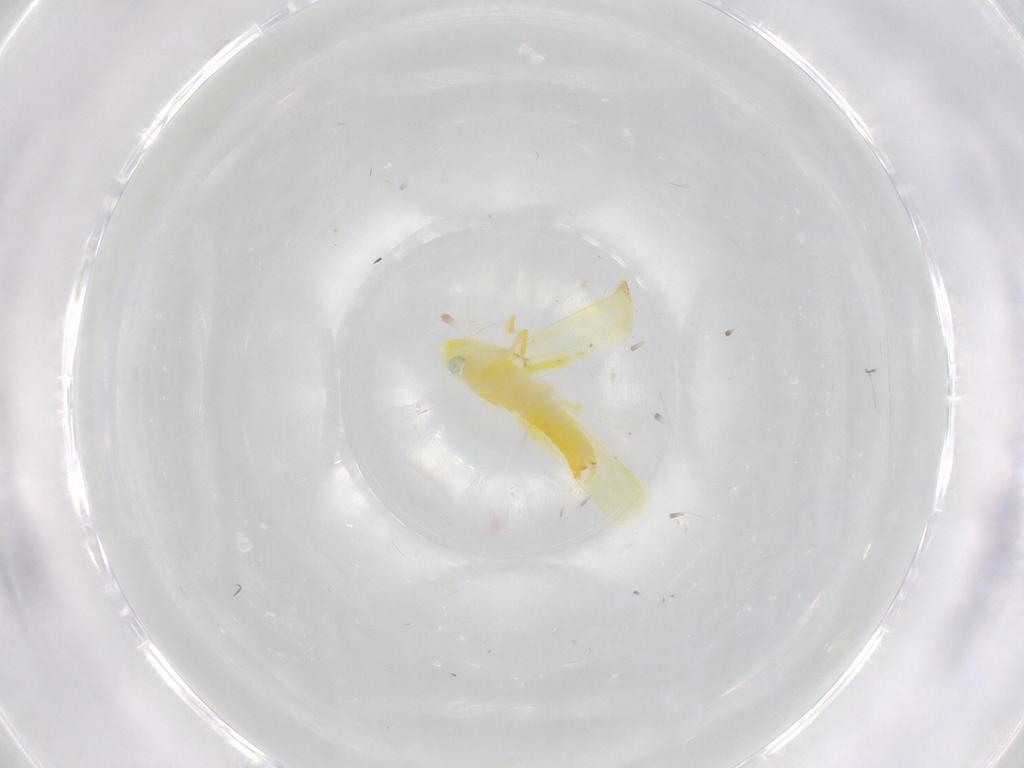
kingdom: Animalia
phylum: Arthropoda
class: Insecta
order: Hemiptera
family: Cicadellidae
